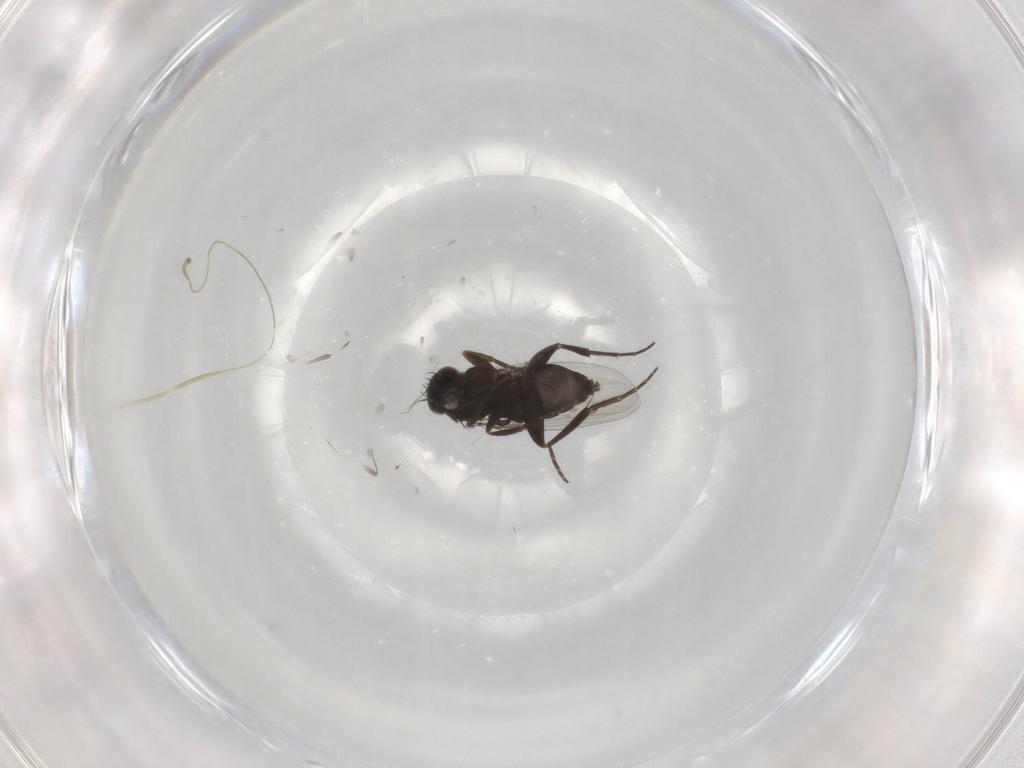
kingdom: Animalia
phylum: Arthropoda
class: Insecta
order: Diptera
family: Phoridae
